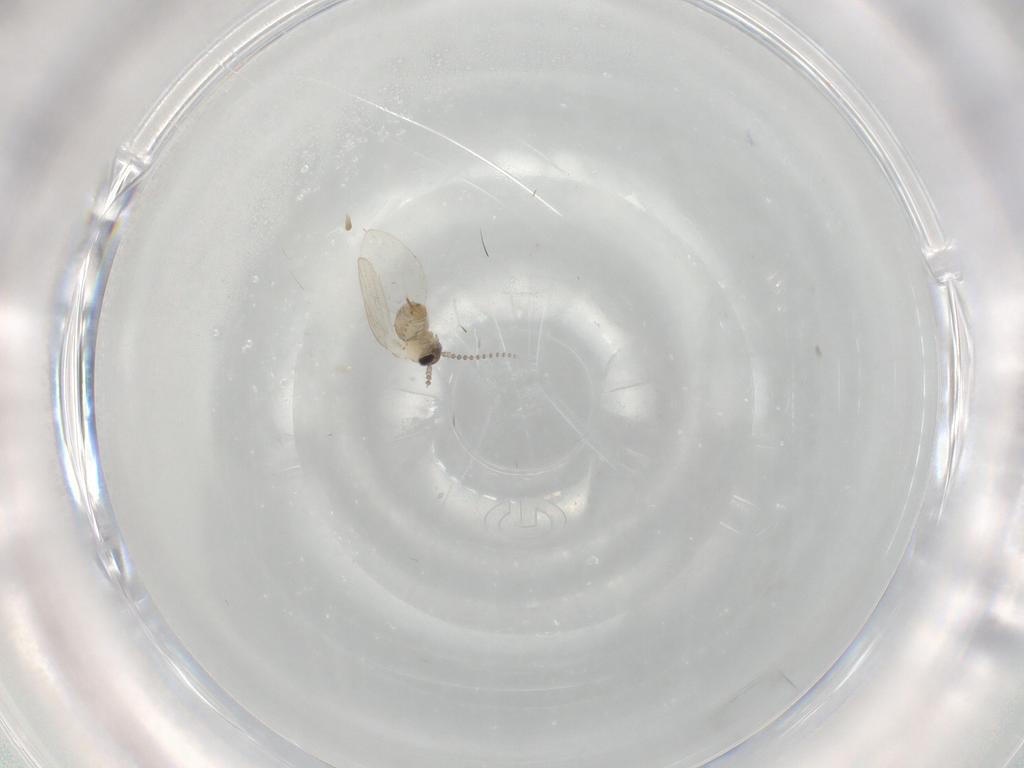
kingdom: Animalia
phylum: Arthropoda
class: Insecta
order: Diptera
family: Psychodidae
